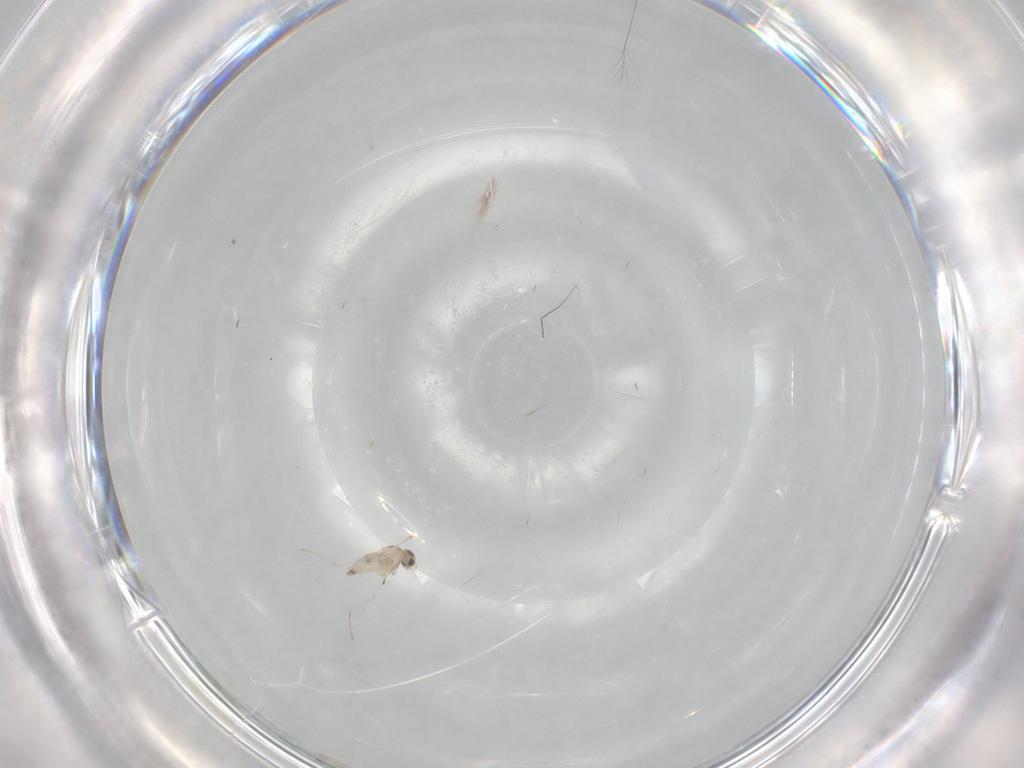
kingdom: Animalia
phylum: Arthropoda
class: Insecta
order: Diptera
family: Cecidomyiidae
